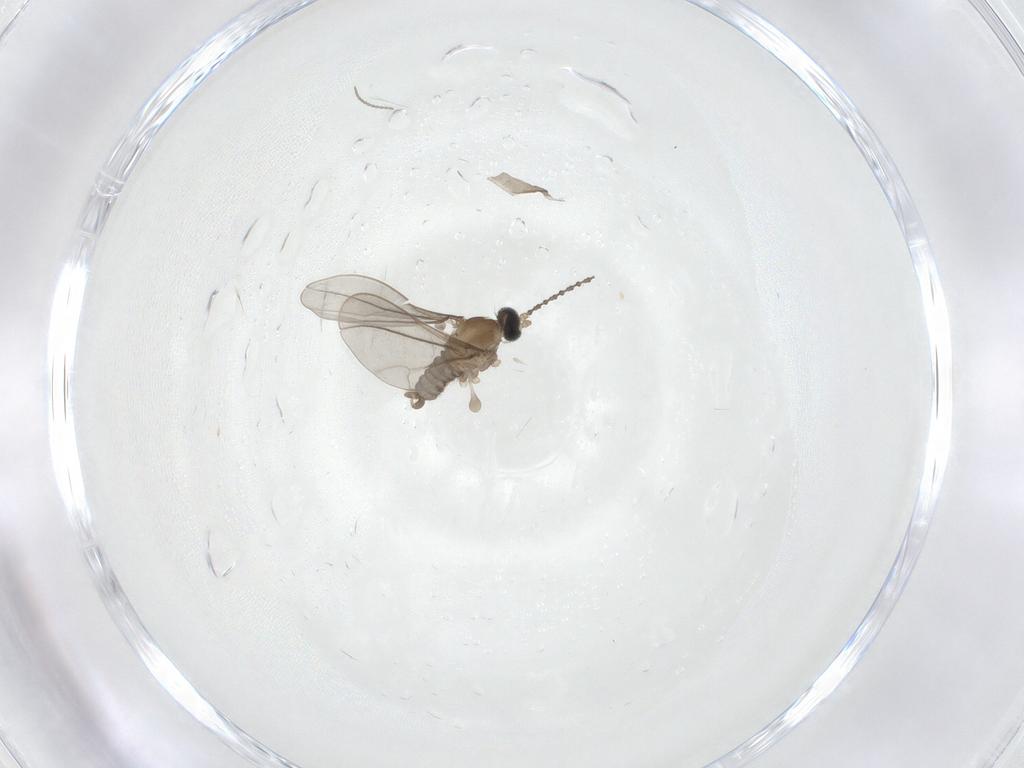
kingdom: Animalia
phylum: Arthropoda
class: Insecta
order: Diptera
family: Cecidomyiidae
